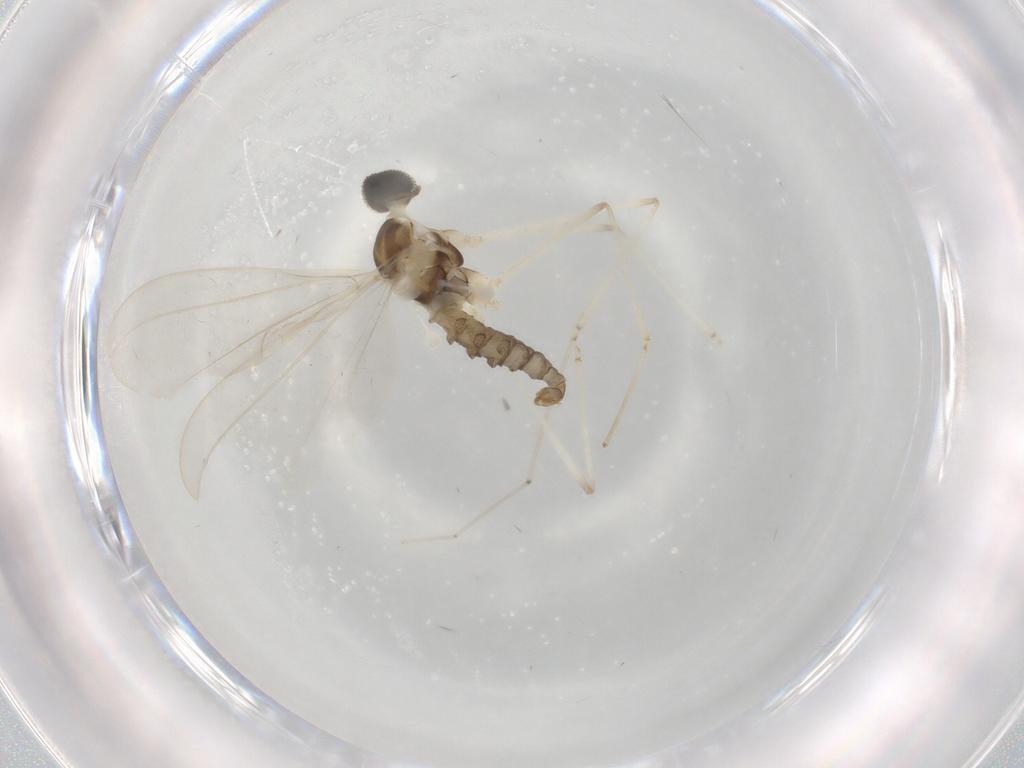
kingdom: Animalia
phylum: Arthropoda
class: Insecta
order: Diptera
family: Cecidomyiidae
